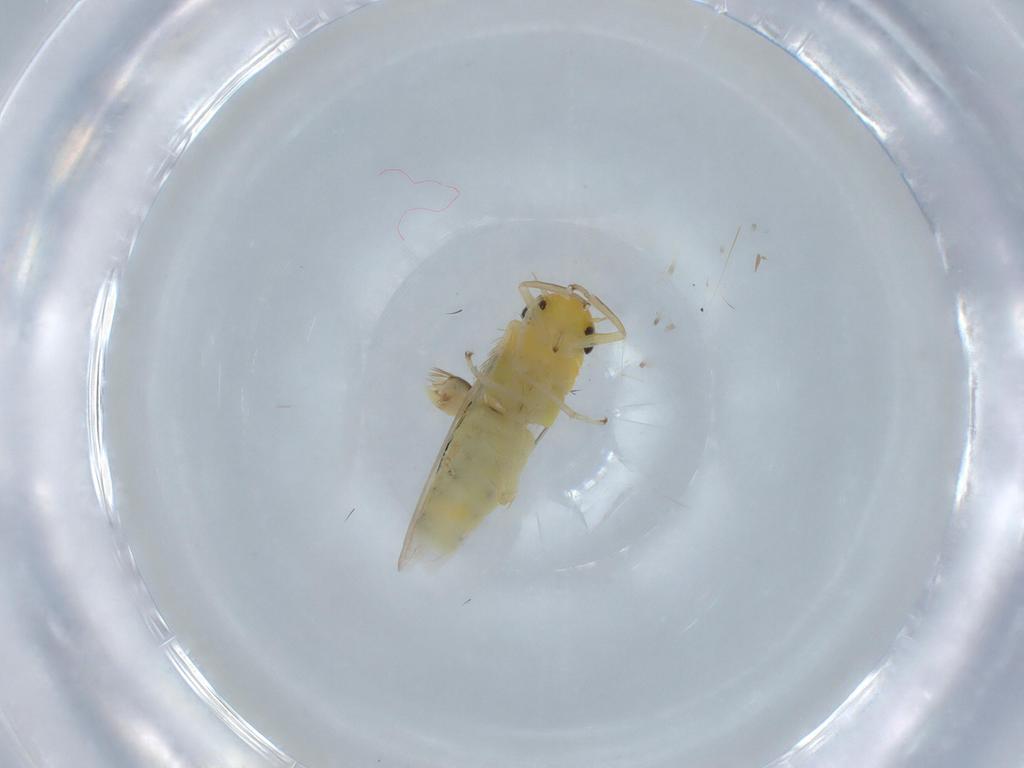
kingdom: Animalia
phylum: Arthropoda
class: Insecta
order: Hemiptera
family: Cicadellidae
